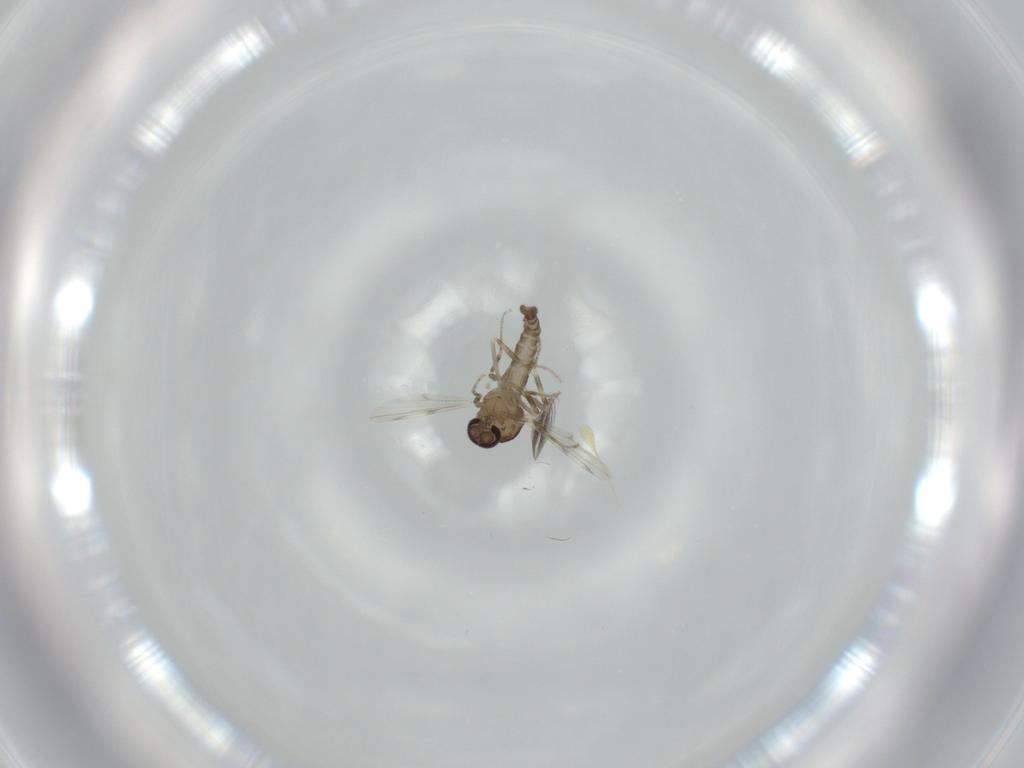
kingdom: Animalia
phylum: Arthropoda
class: Insecta
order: Diptera
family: Ceratopogonidae
